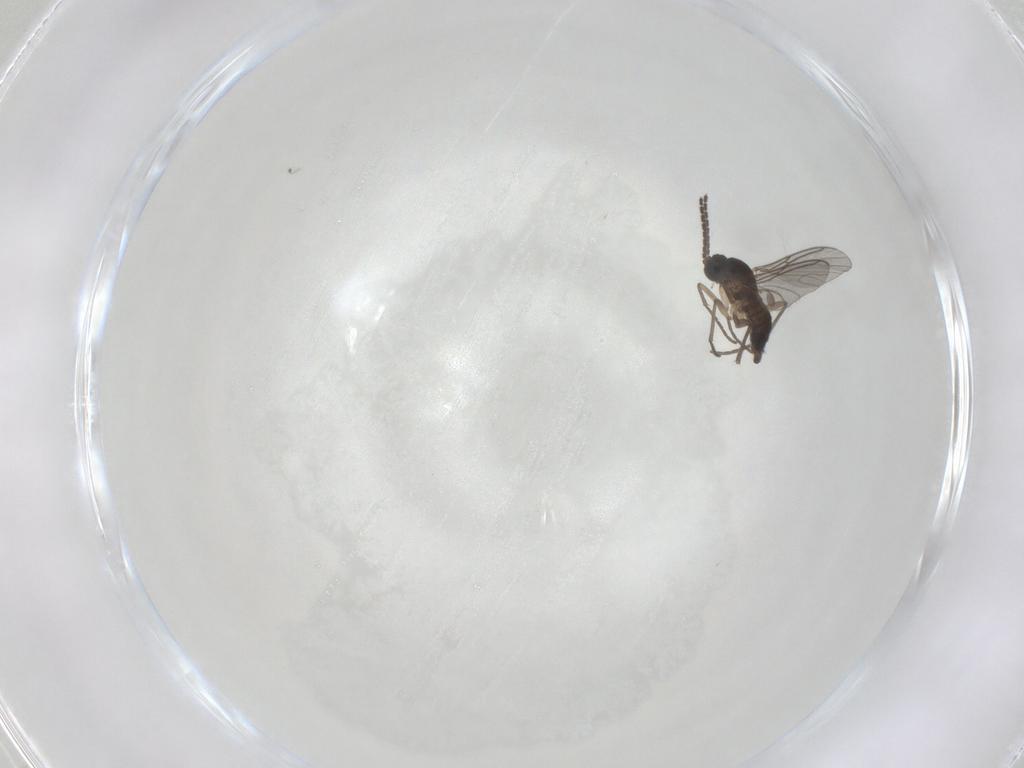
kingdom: Animalia
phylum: Arthropoda
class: Insecta
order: Diptera
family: Sciaridae
